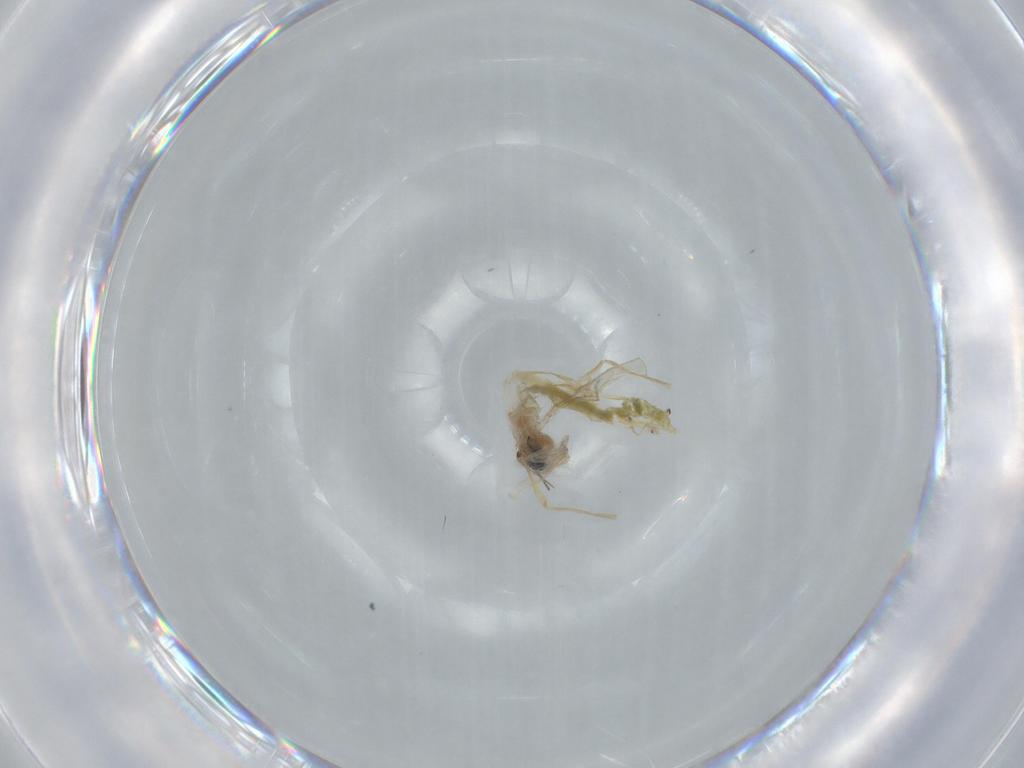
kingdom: Animalia
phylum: Arthropoda
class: Insecta
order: Diptera
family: Chironomidae
